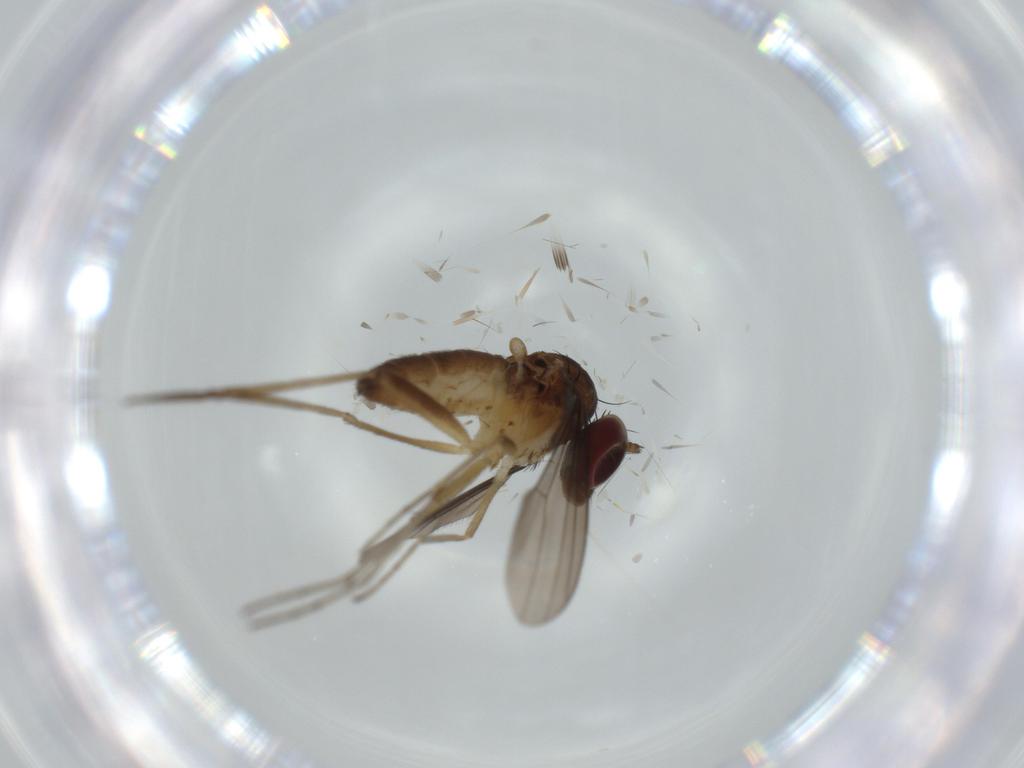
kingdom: Animalia
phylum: Arthropoda
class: Insecta
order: Diptera
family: Dolichopodidae
